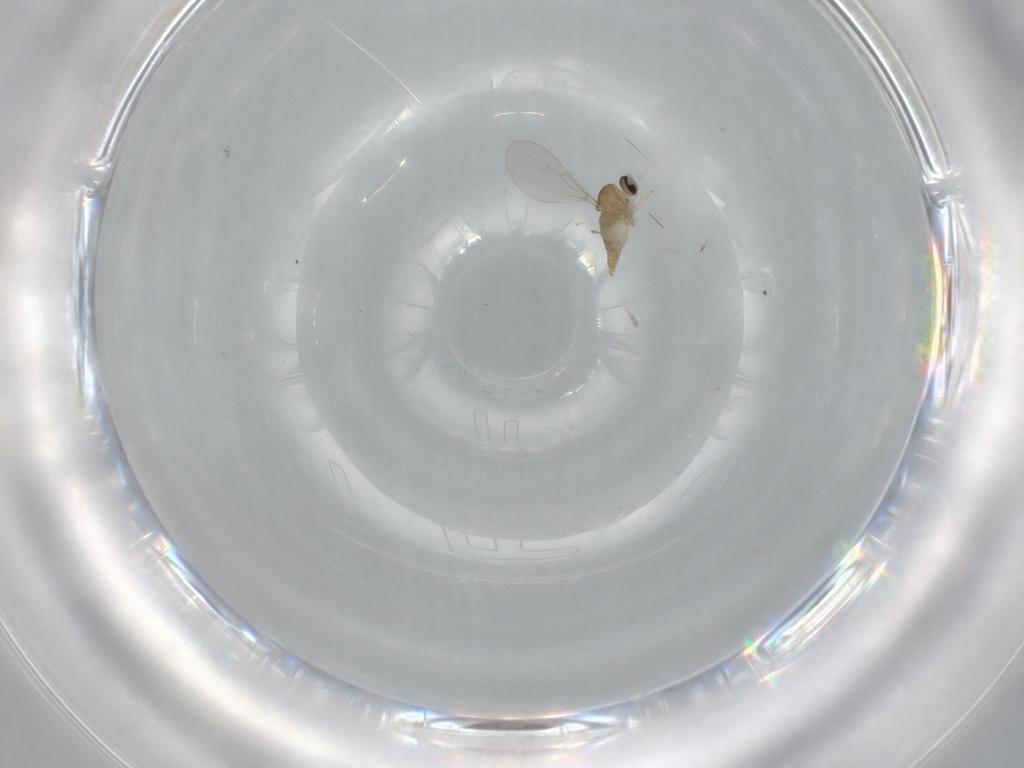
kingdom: Animalia
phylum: Arthropoda
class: Insecta
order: Diptera
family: Cecidomyiidae
